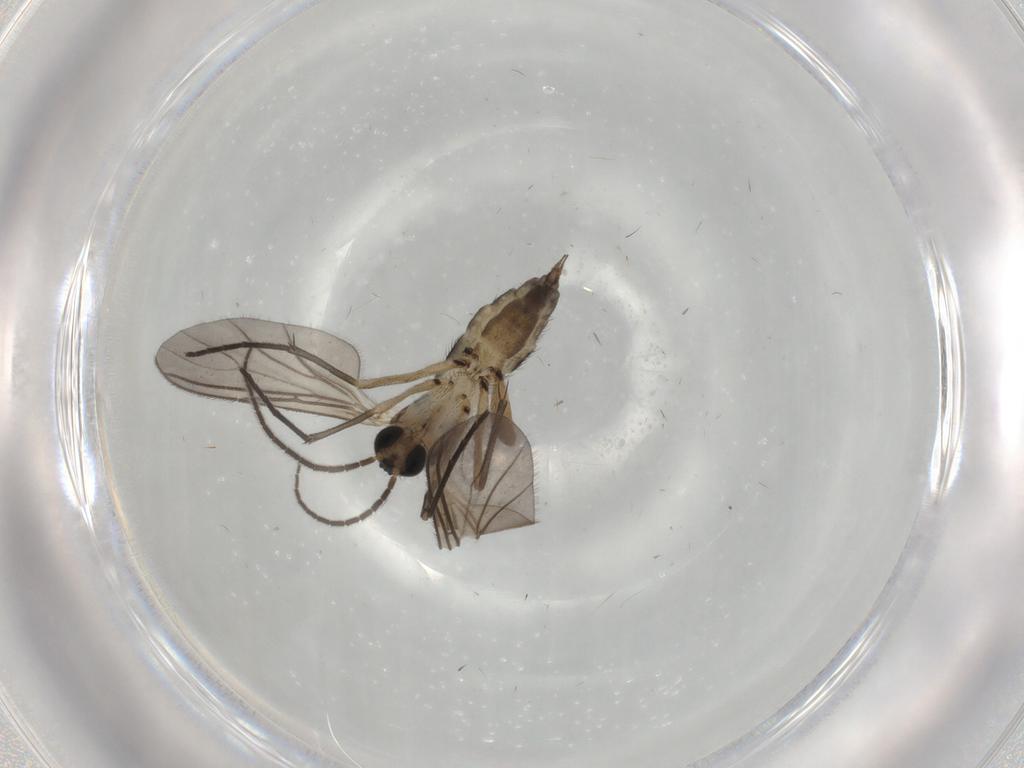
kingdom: Animalia
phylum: Arthropoda
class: Insecta
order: Diptera
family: Sciaridae
